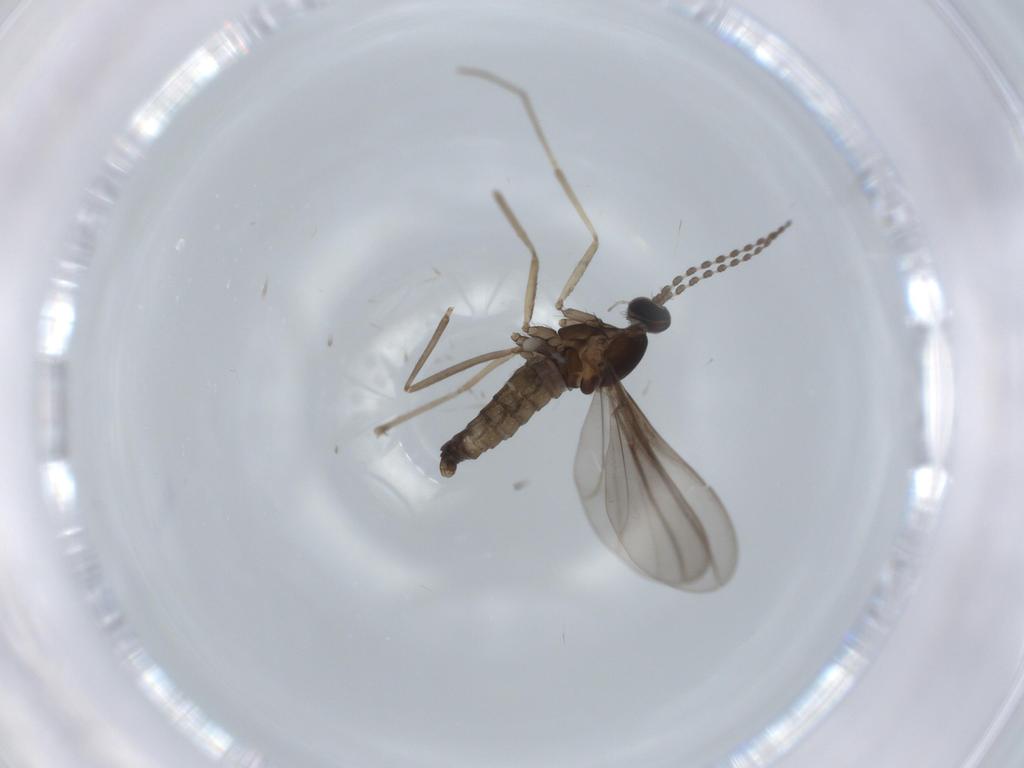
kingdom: Animalia
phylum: Arthropoda
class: Insecta
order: Diptera
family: Cecidomyiidae
